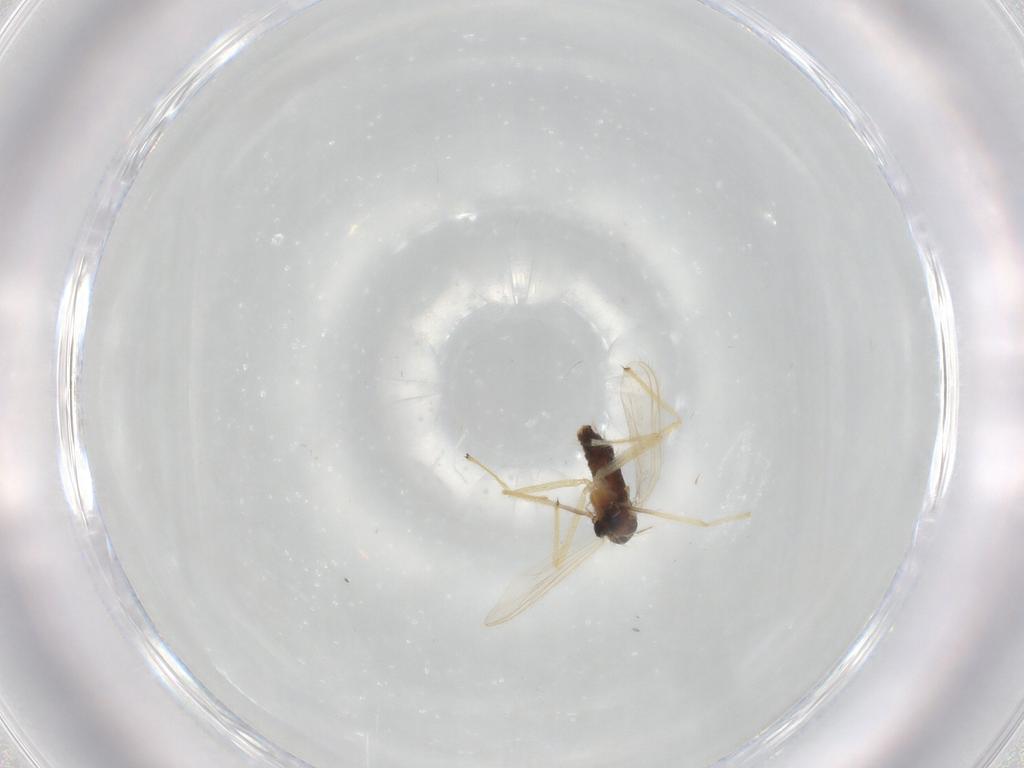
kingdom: Animalia
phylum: Arthropoda
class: Insecta
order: Diptera
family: Chironomidae
